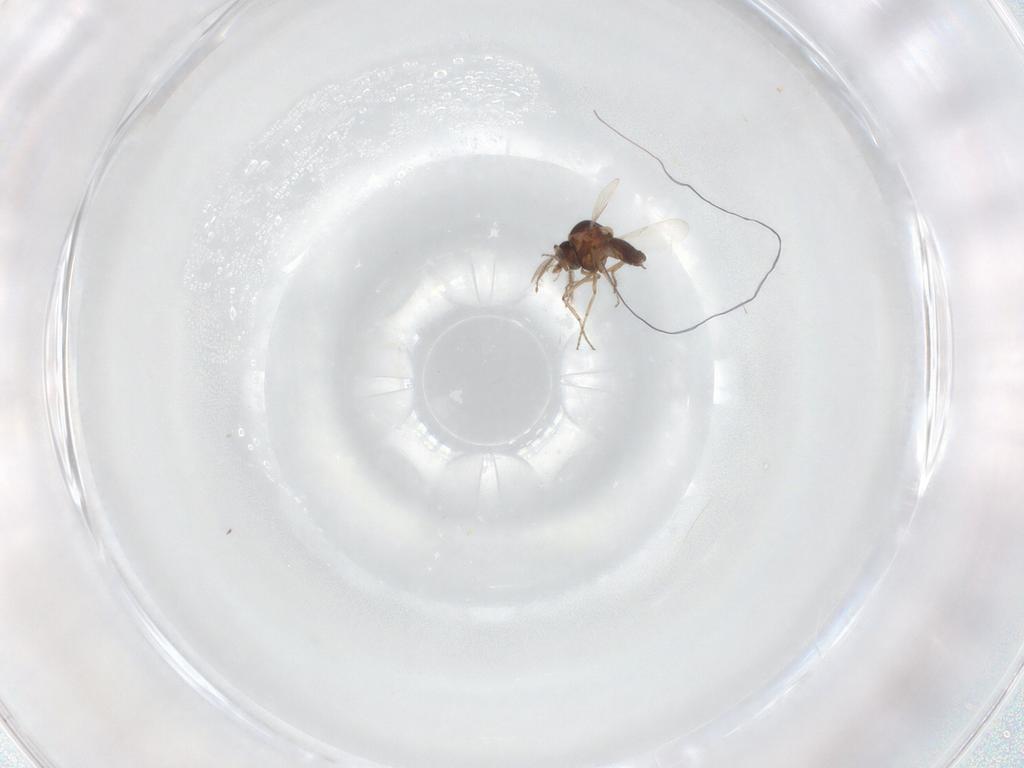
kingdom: Animalia
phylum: Arthropoda
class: Insecta
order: Diptera
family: Ceratopogonidae
